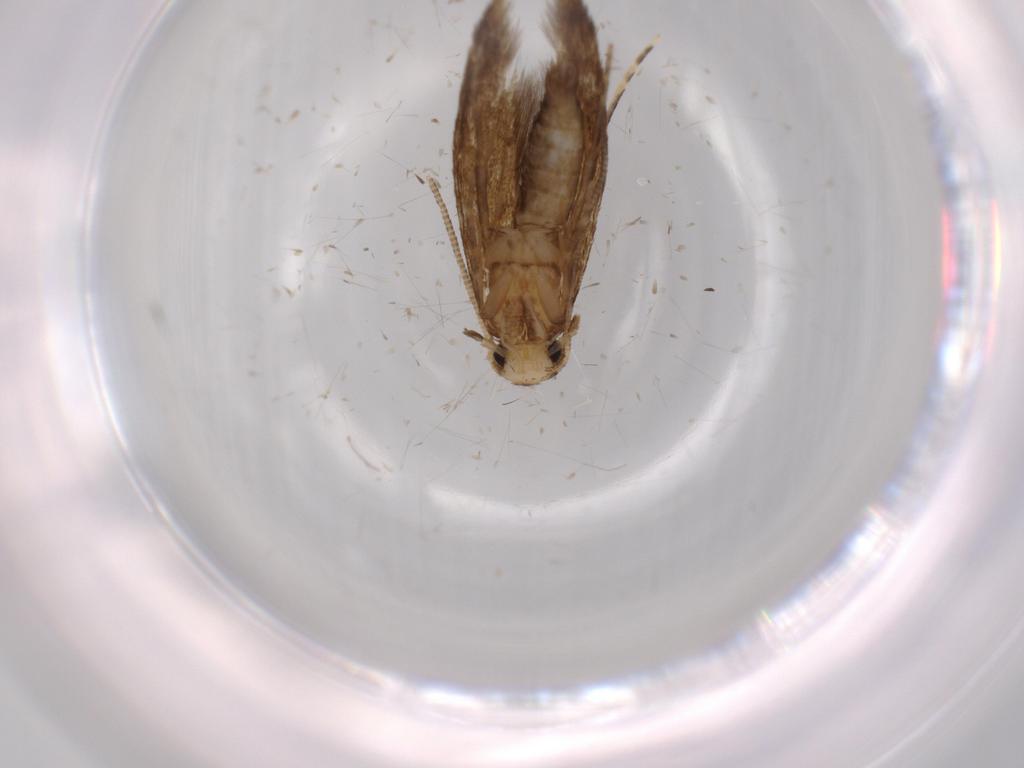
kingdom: Animalia
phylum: Arthropoda
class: Insecta
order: Lepidoptera
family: Tineidae
